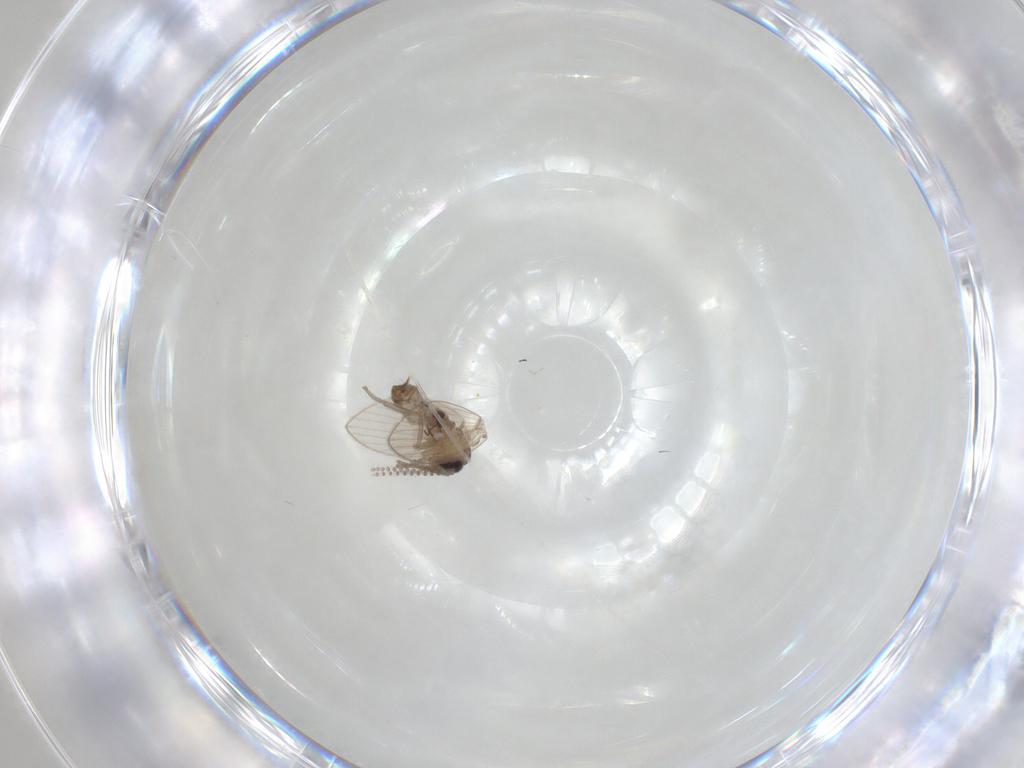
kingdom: Animalia
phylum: Arthropoda
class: Insecta
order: Diptera
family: Psychodidae
